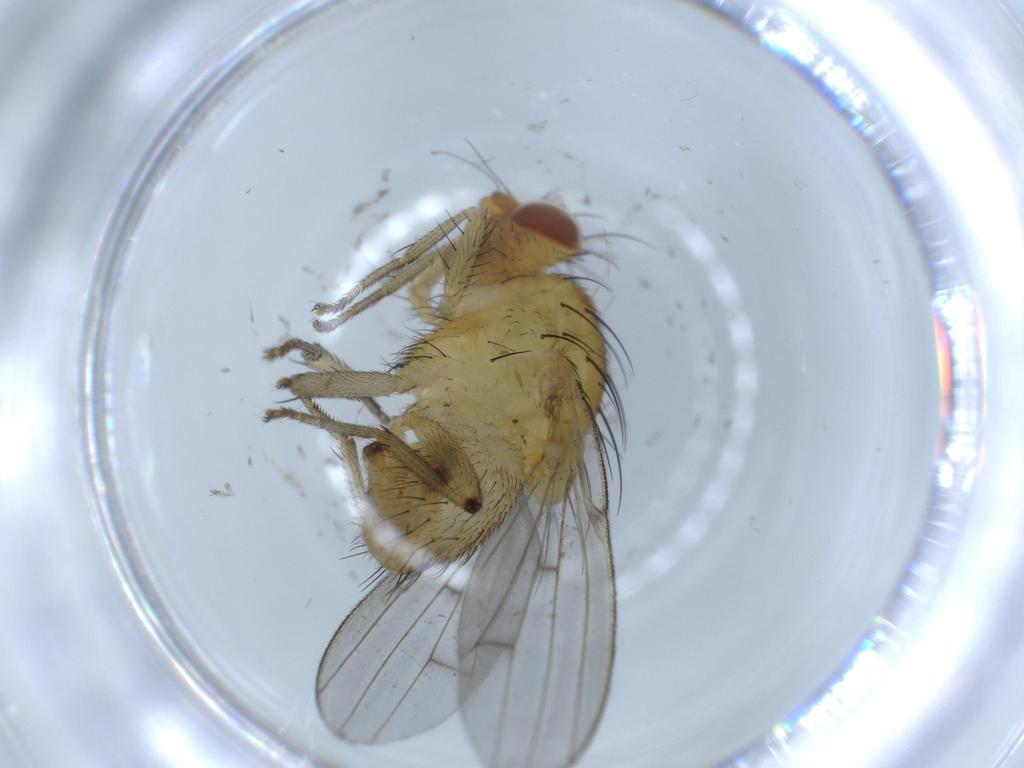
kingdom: Animalia
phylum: Arthropoda
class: Insecta
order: Diptera
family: Cecidomyiidae
